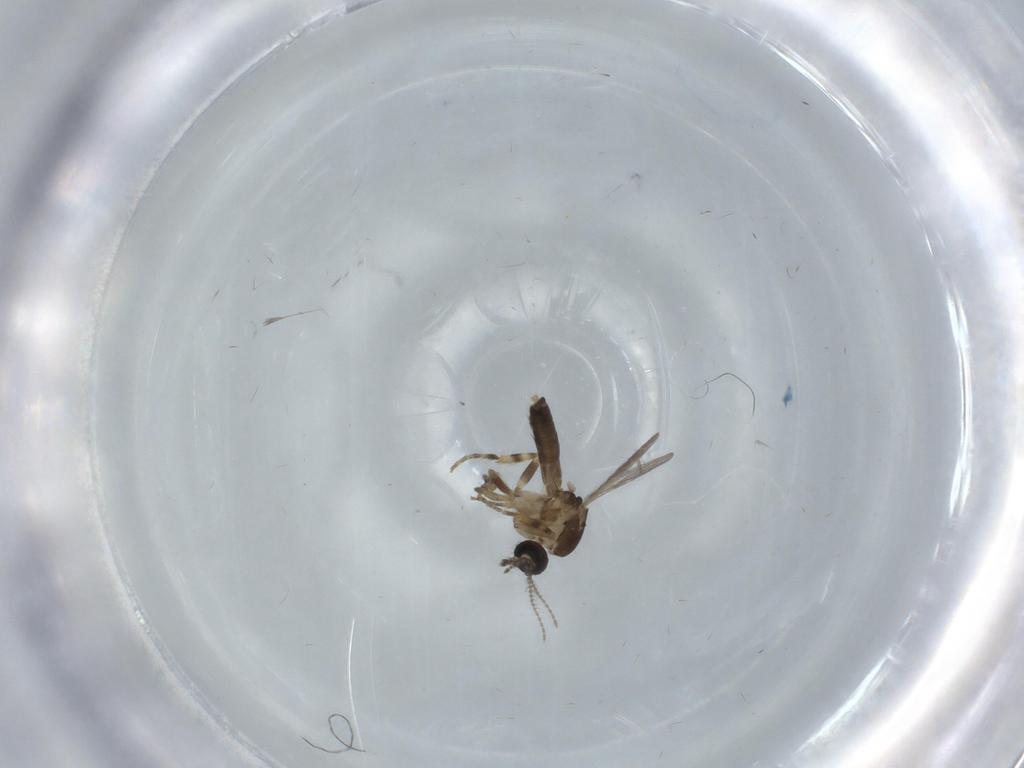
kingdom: Animalia
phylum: Arthropoda
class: Insecta
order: Diptera
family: Ceratopogonidae
